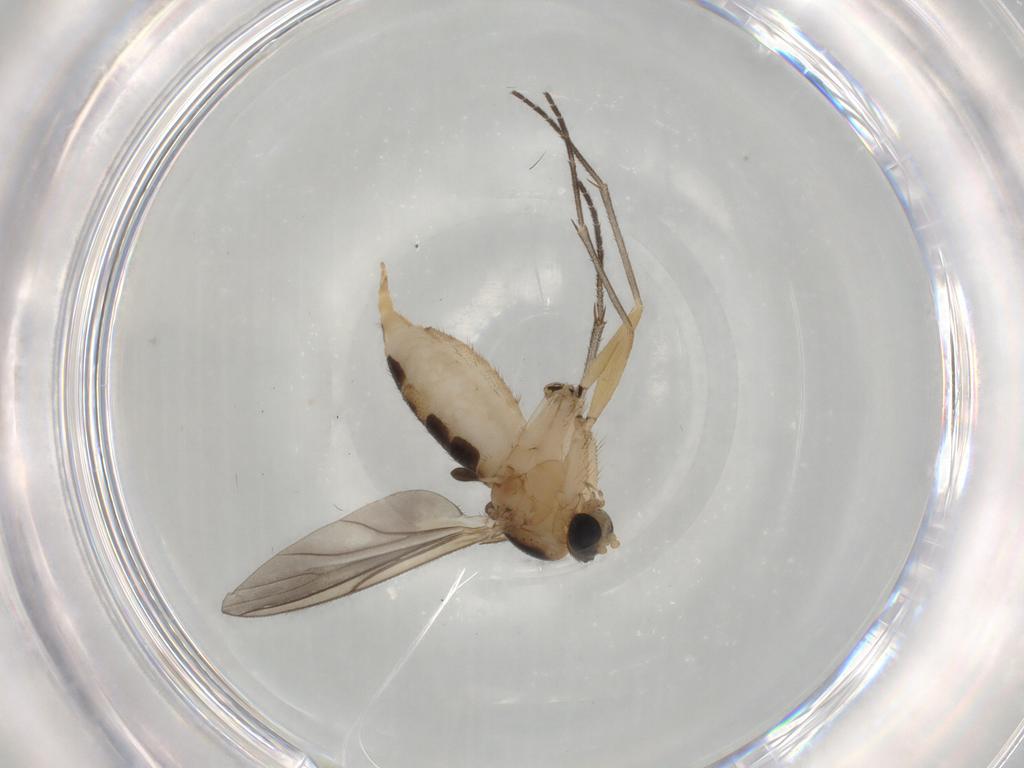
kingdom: Animalia
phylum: Arthropoda
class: Insecta
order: Diptera
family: Sciaridae
